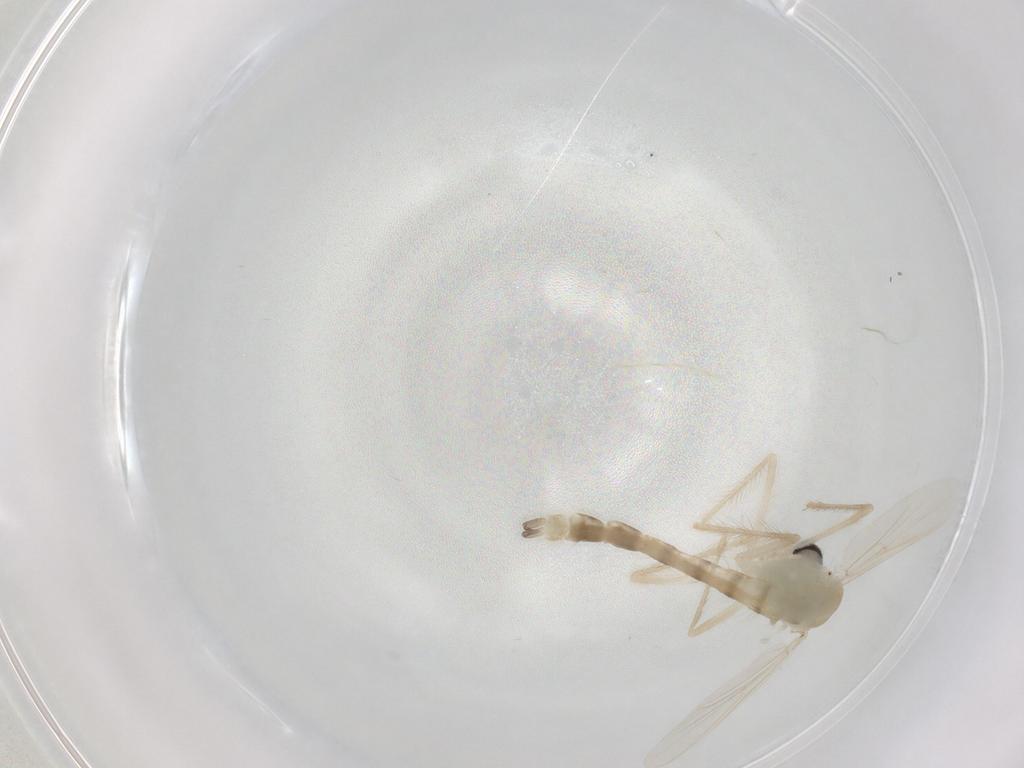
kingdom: Animalia
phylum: Arthropoda
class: Insecta
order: Diptera
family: Chironomidae
